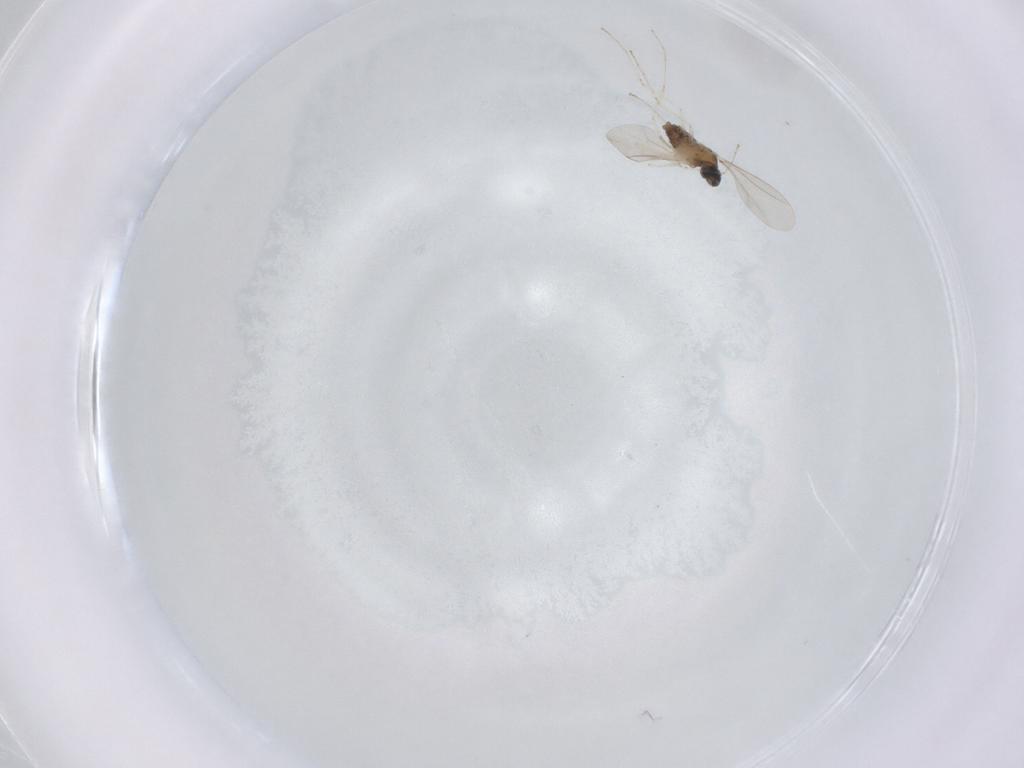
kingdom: Animalia
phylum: Arthropoda
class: Insecta
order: Diptera
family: Cecidomyiidae
